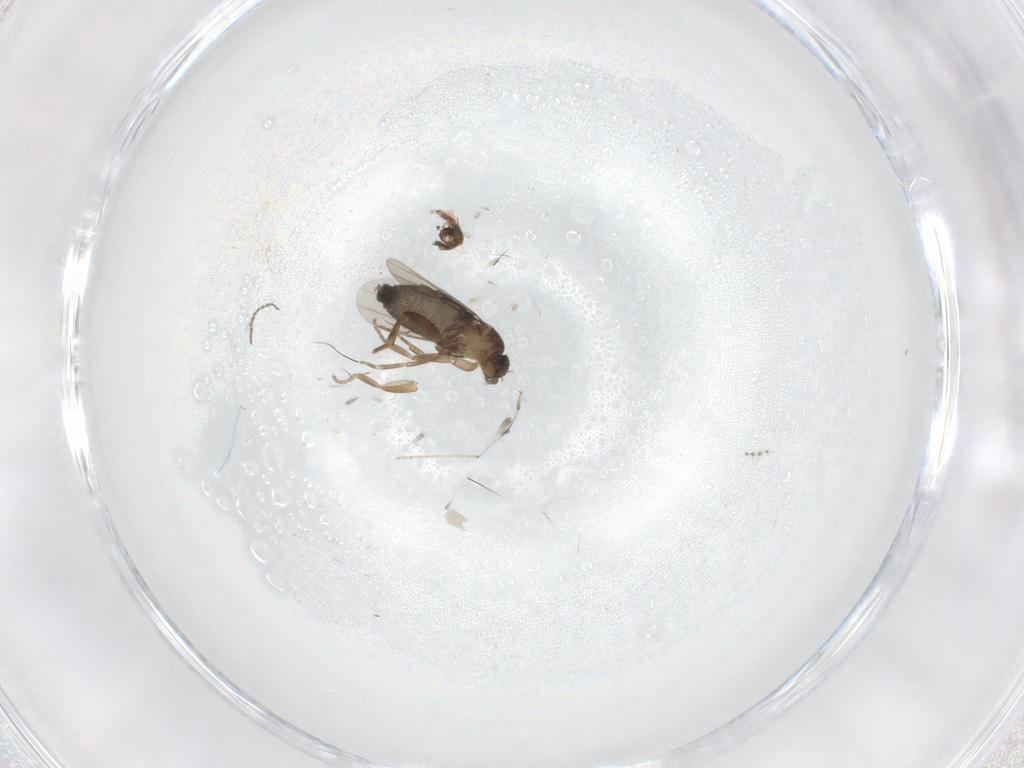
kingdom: Animalia
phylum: Arthropoda
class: Insecta
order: Diptera
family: Phoridae
